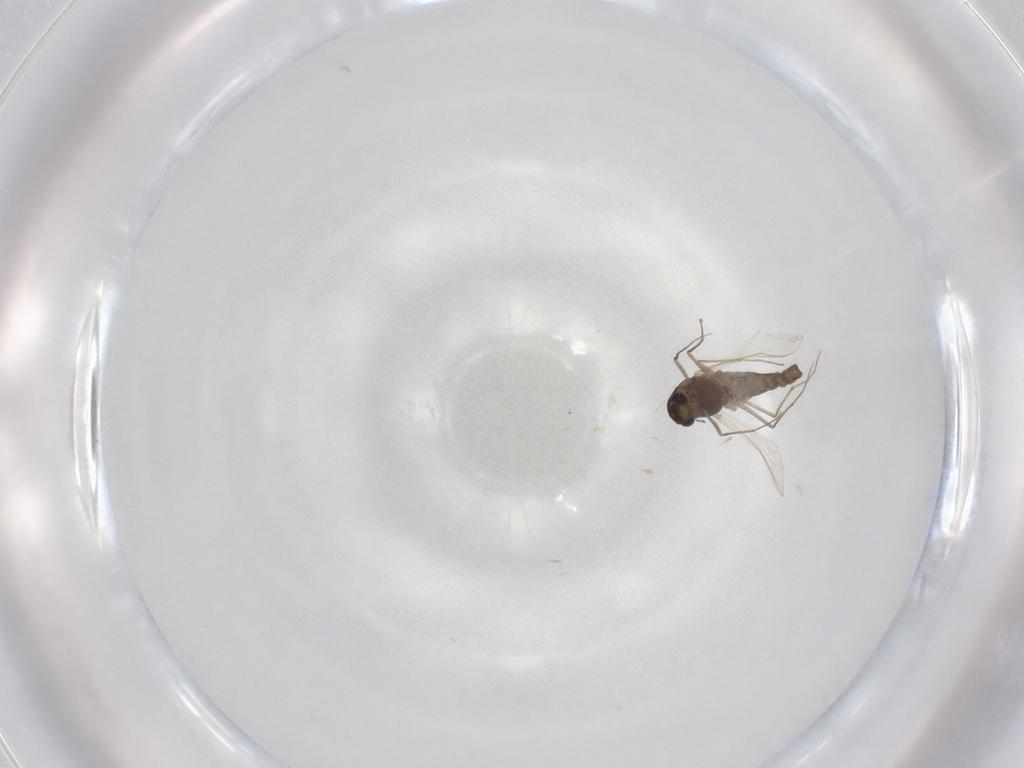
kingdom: Animalia
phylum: Arthropoda
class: Insecta
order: Diptera
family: Chironomidae
